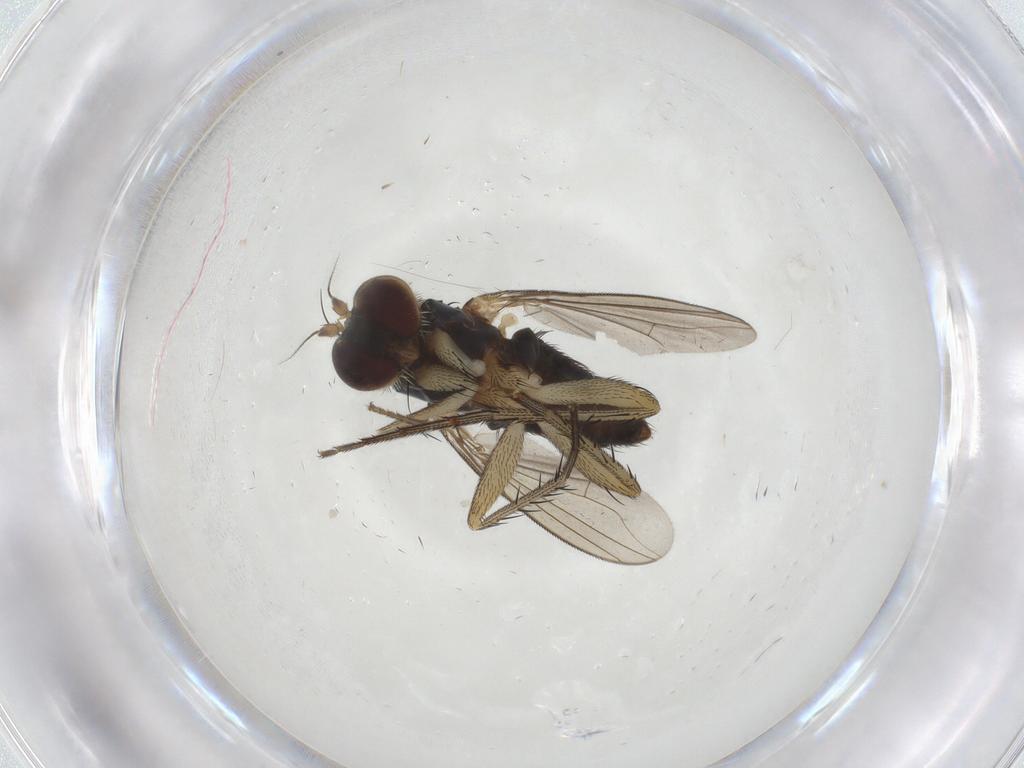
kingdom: Animalia
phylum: Arthropoda
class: Insecta
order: Diptera
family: Dolichopodidae
